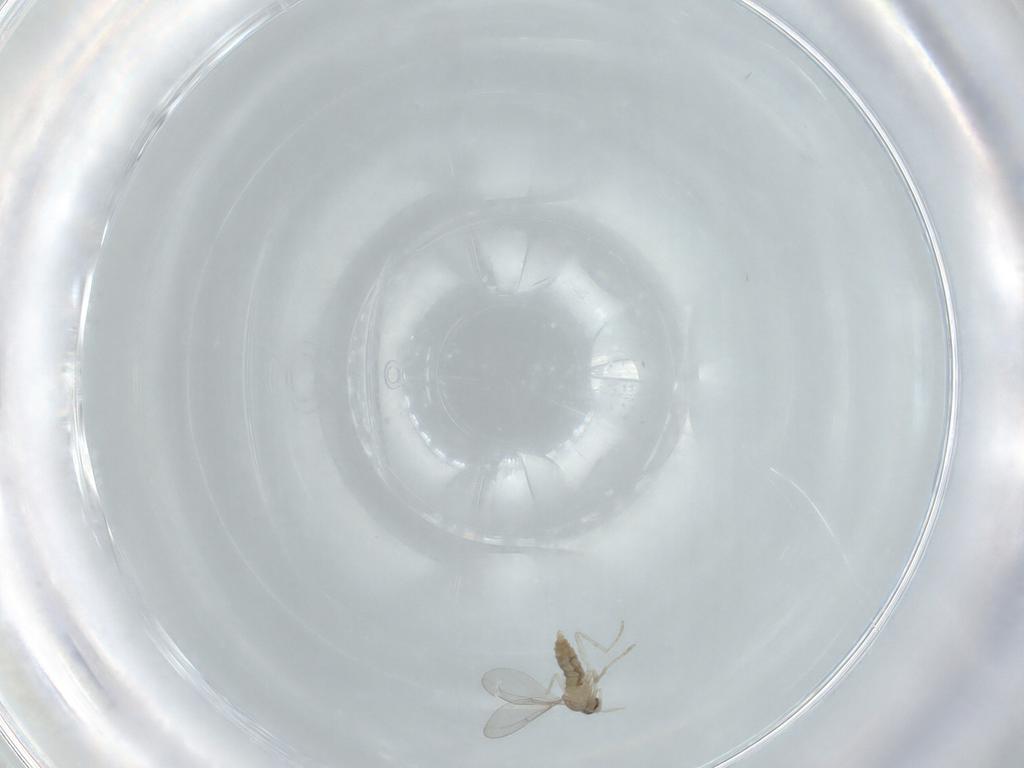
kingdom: Animalia
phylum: Arthropoda
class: Insecta
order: Diptera
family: Cecidomyiidae
